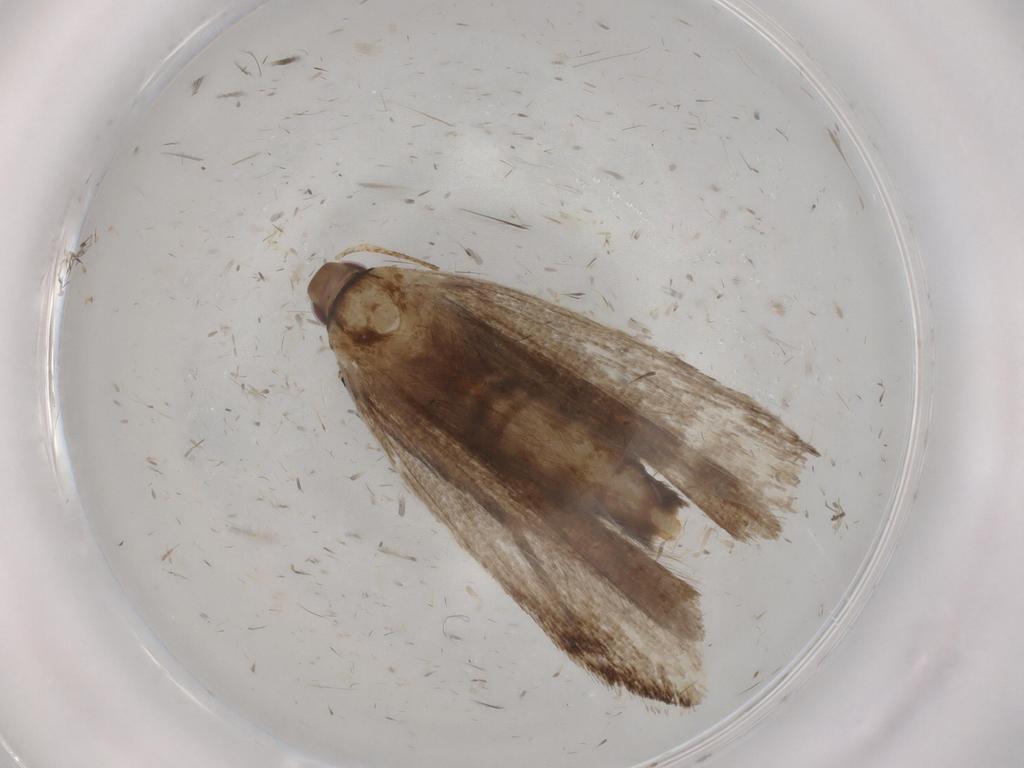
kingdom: Animalia
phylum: Arthropoda
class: Insecta
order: Lepidoptera
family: Gelechiidae
